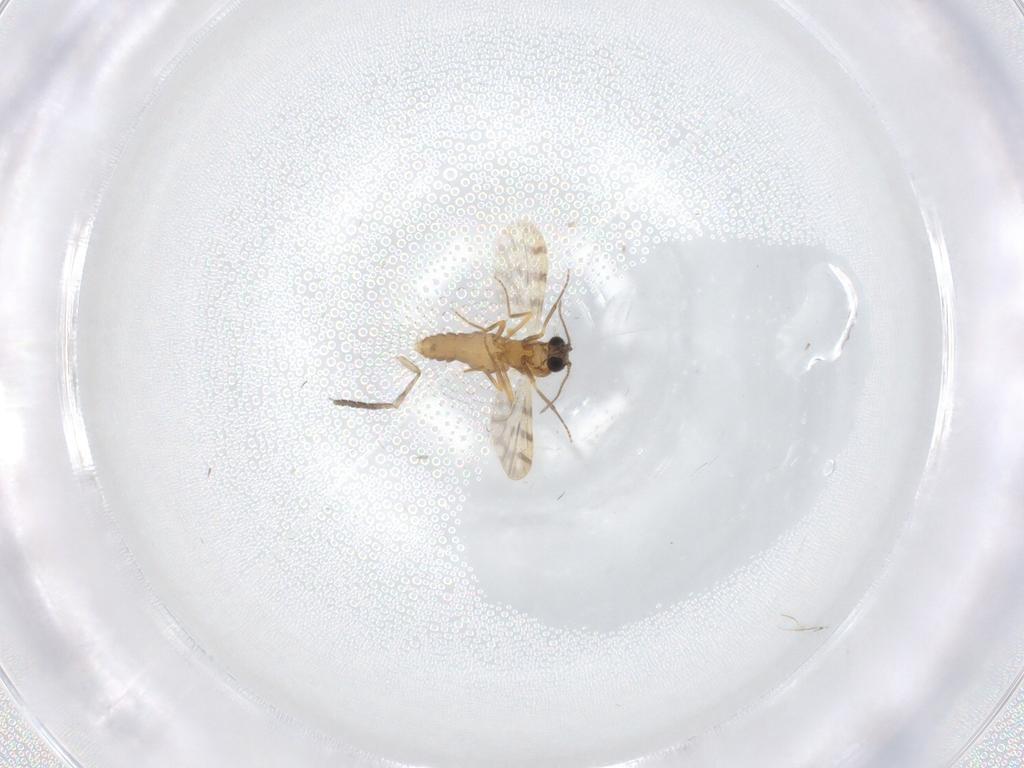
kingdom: Animalia
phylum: Arthropoda
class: Insecta
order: Diptera
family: Ceratopogonidae
